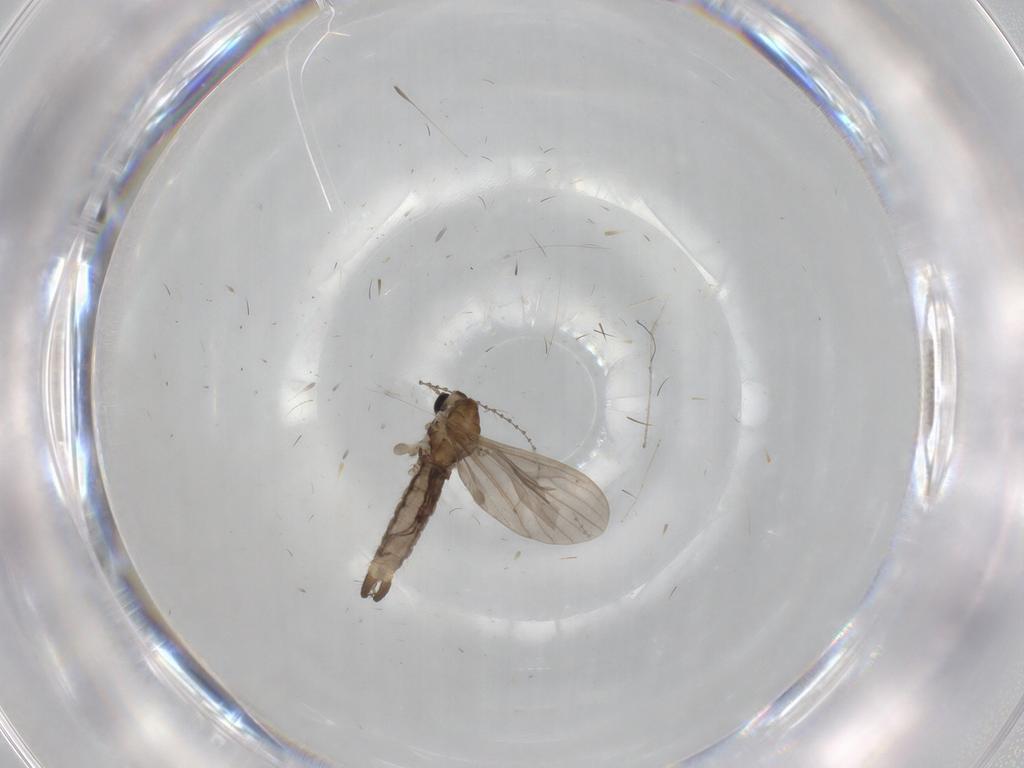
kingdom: Animalia
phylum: Arthropoda
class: Insecta
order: Diptera
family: Limoniidae
